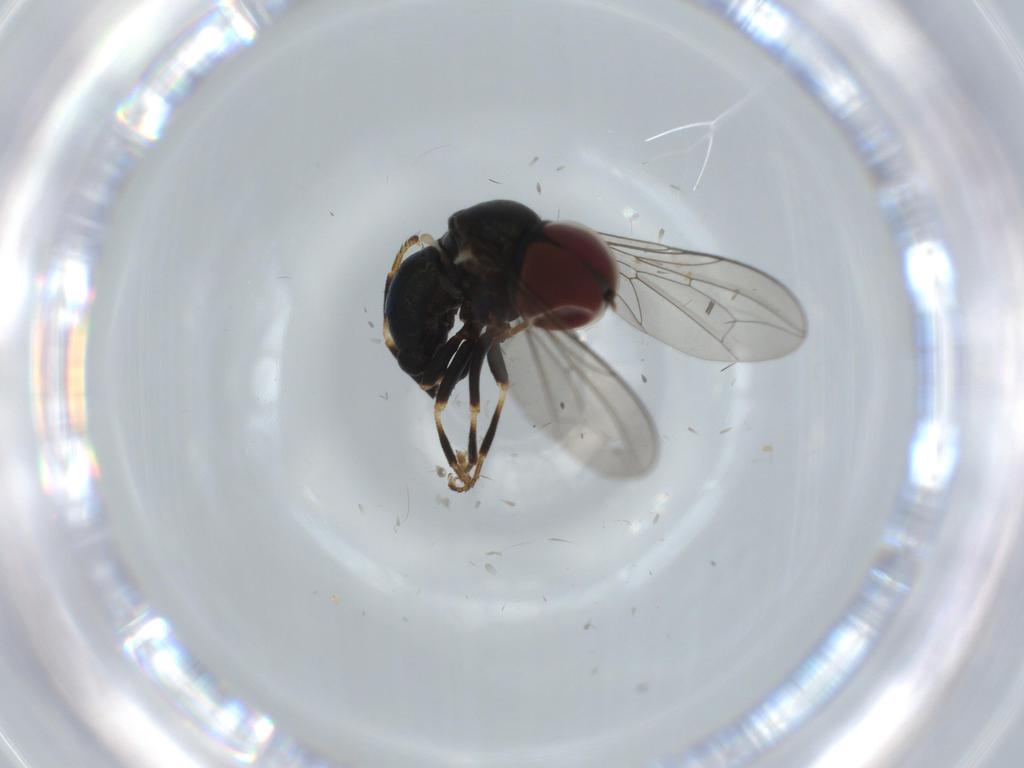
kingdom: Animalia
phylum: Arthropoda
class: Insecta
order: Diptera
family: Pipunculidae
